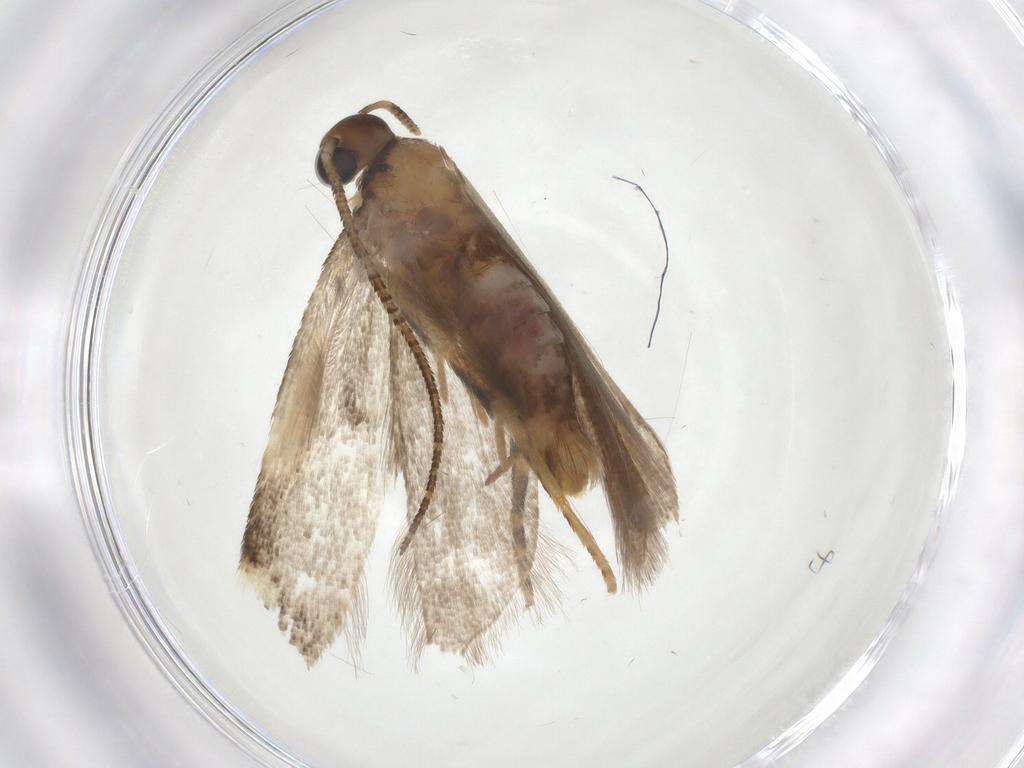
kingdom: Animalia
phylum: Arthropoda
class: Insecta
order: Lepidoptera
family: Gelechiidae
